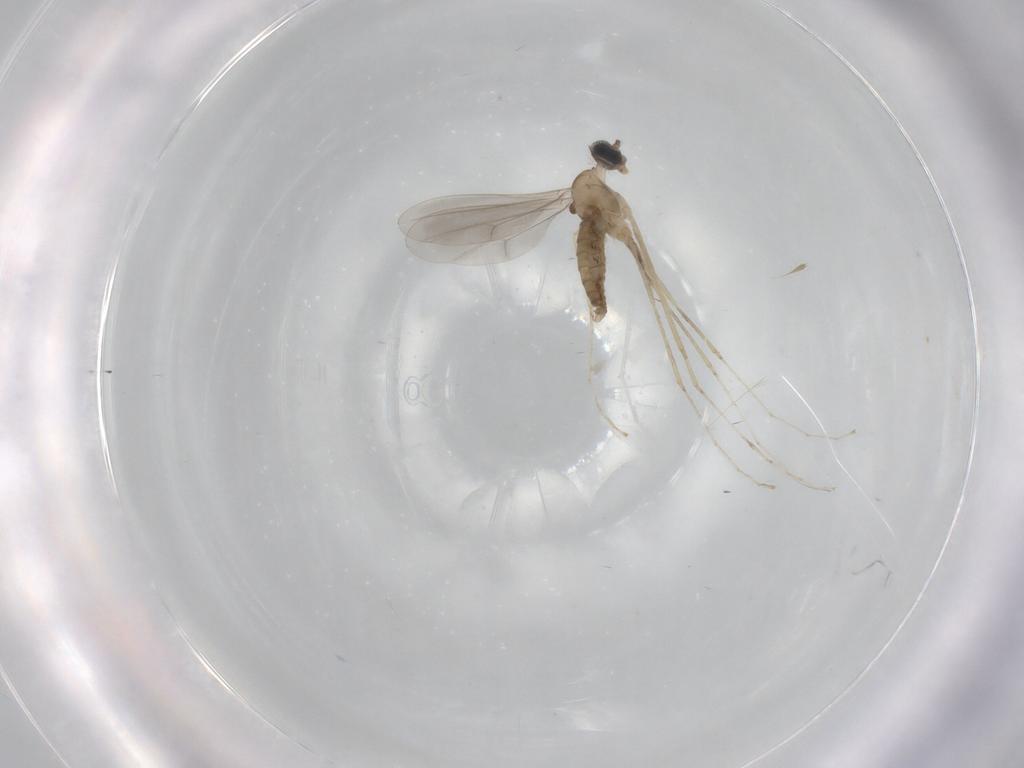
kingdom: Animalia
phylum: Arthropoda
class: Insecta
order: Diptera
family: Cecidomyiidae
